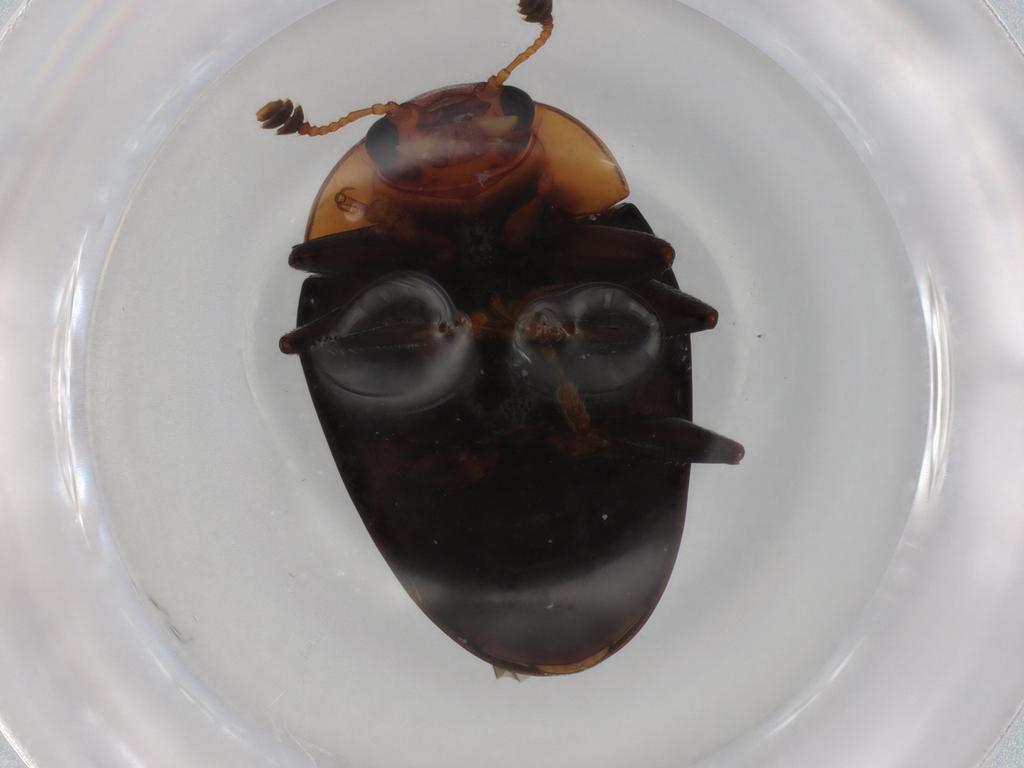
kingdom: Animalia
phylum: Arthropoda
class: Insecta
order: Coleoptera
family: Erotylidae
